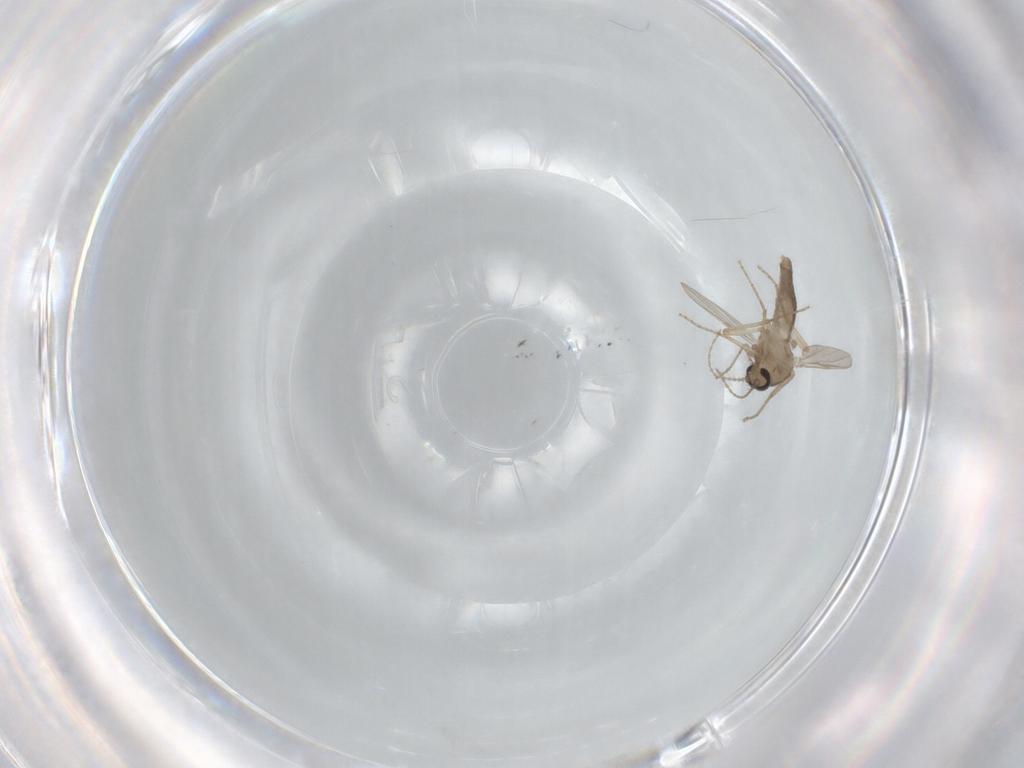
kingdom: Animalia
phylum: Arthropoda
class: Insecta
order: Diptera
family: Ceratopogonidae
